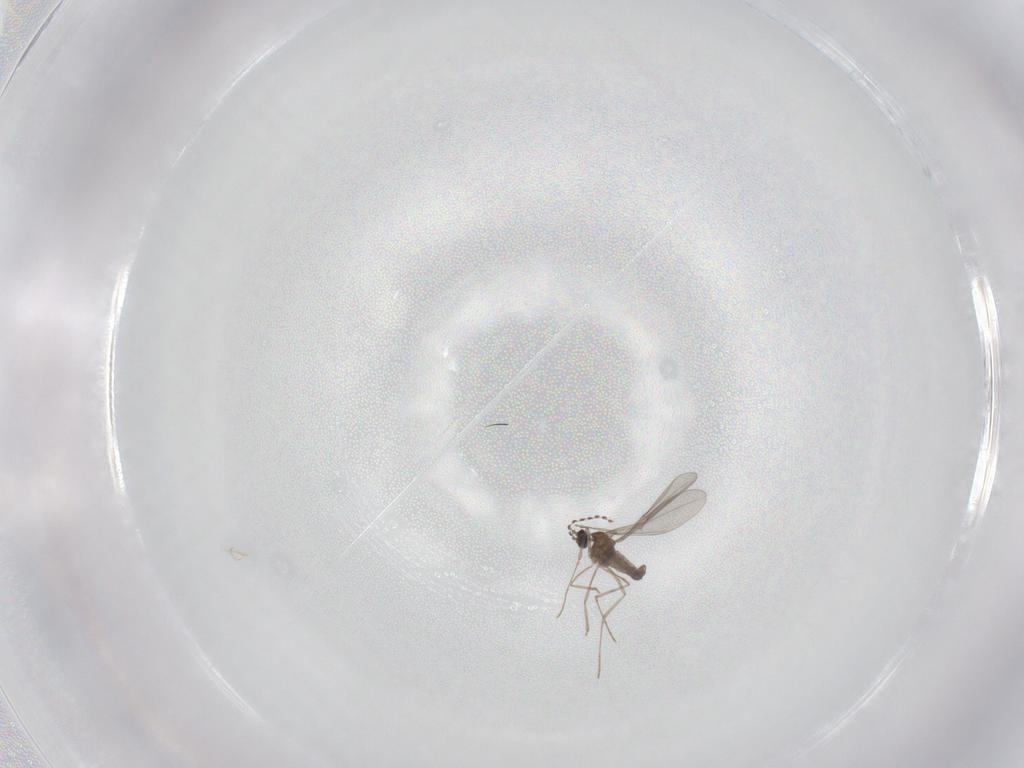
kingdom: Animalia
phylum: Arthropoda
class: Insecta
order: Diptera
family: Cecidomyiidae
